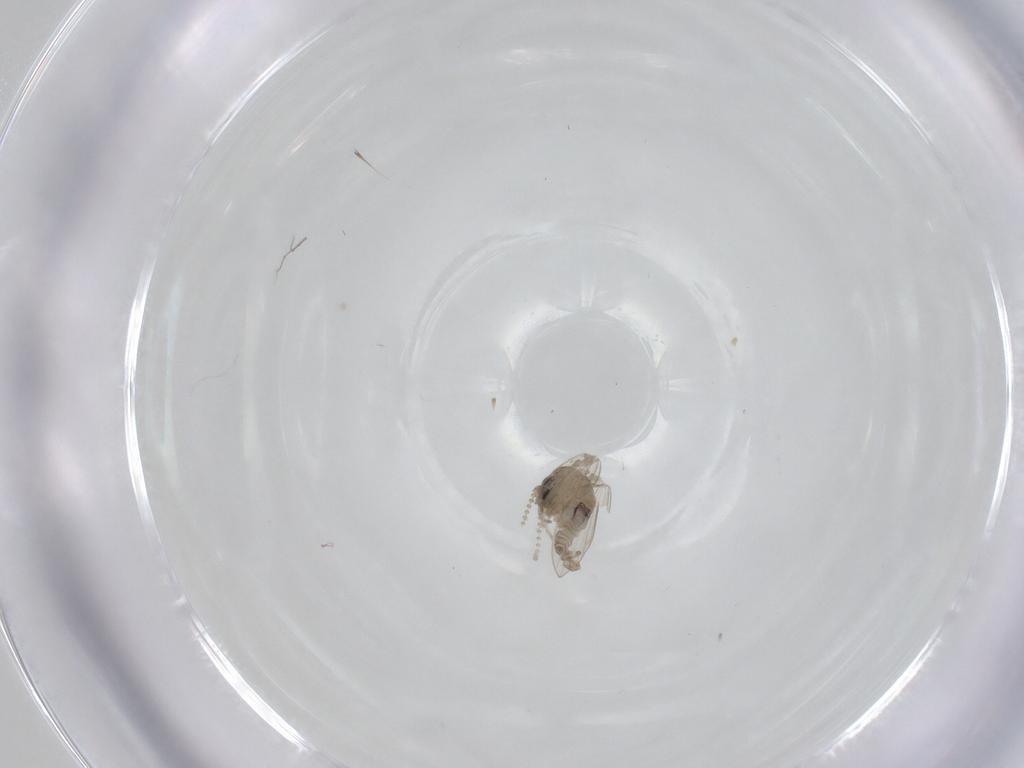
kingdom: Animalia
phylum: Arthropoda
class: Insecta
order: Diptera
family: Psychodidae
